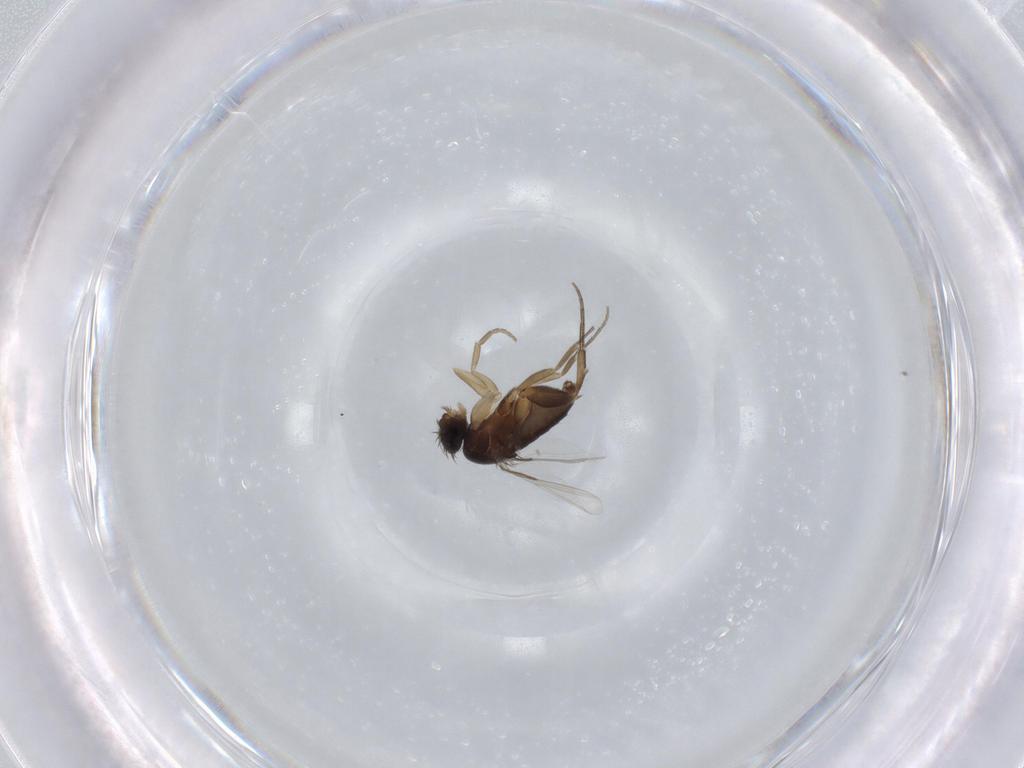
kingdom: Animalia
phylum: Arthropoda
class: Insecta
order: Diptera
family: Phoridae
